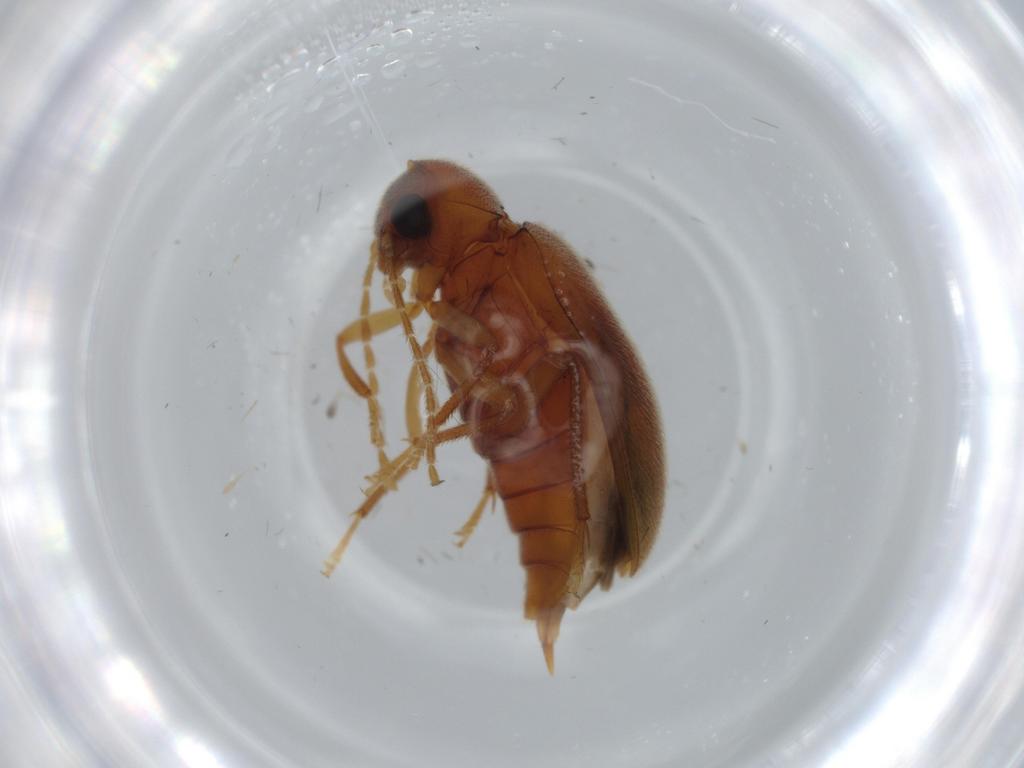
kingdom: Animalia
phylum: Arthropoda
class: Insecta
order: Coleoptera
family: Ptilodactylidae
